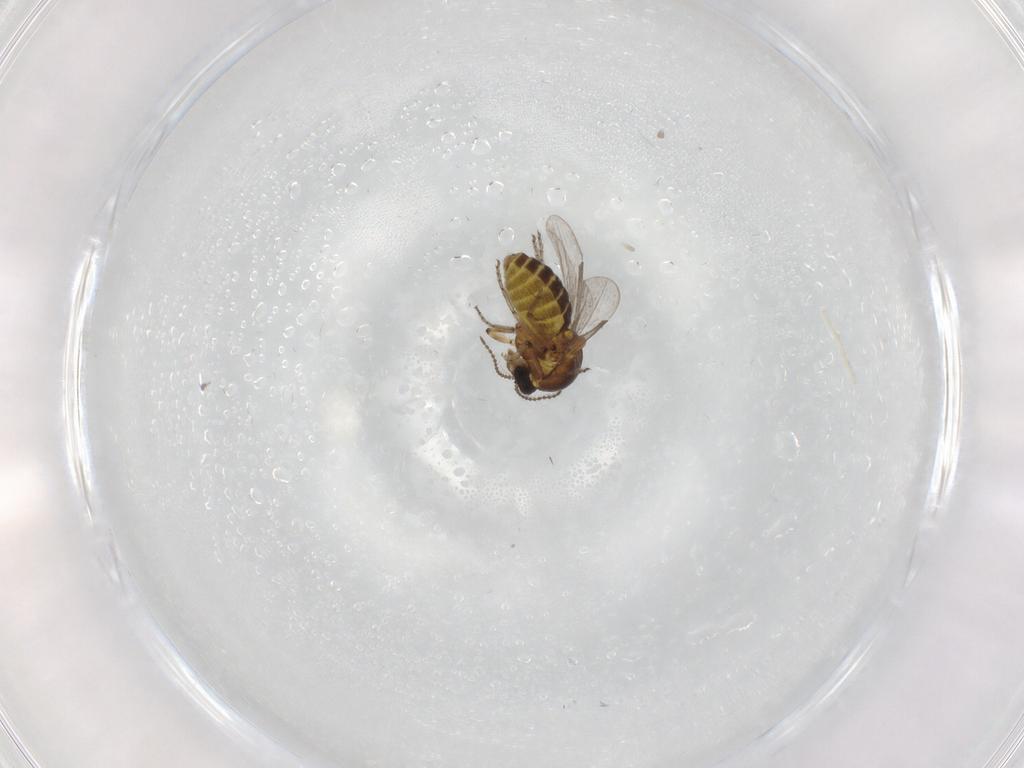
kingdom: Animalia
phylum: Arthropoda
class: Insecta
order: Diptera
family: Ceratopogonidae
